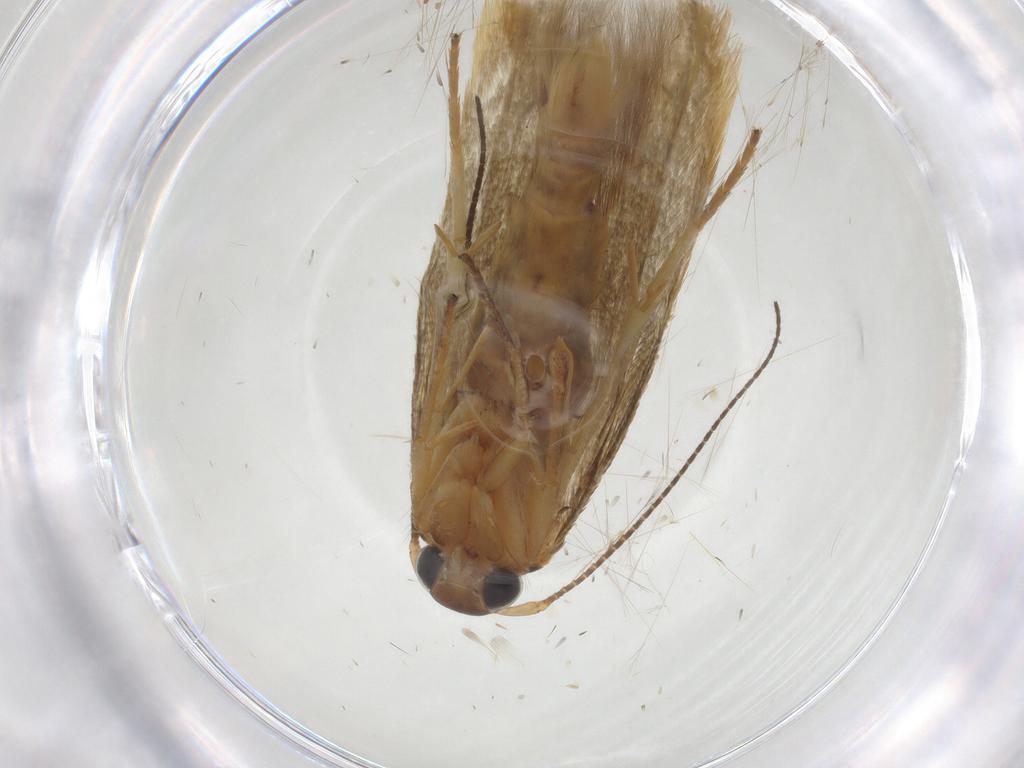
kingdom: Animalia
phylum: Arthropoda
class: Insecta
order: Lepidoptera
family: Stathmopodidae
